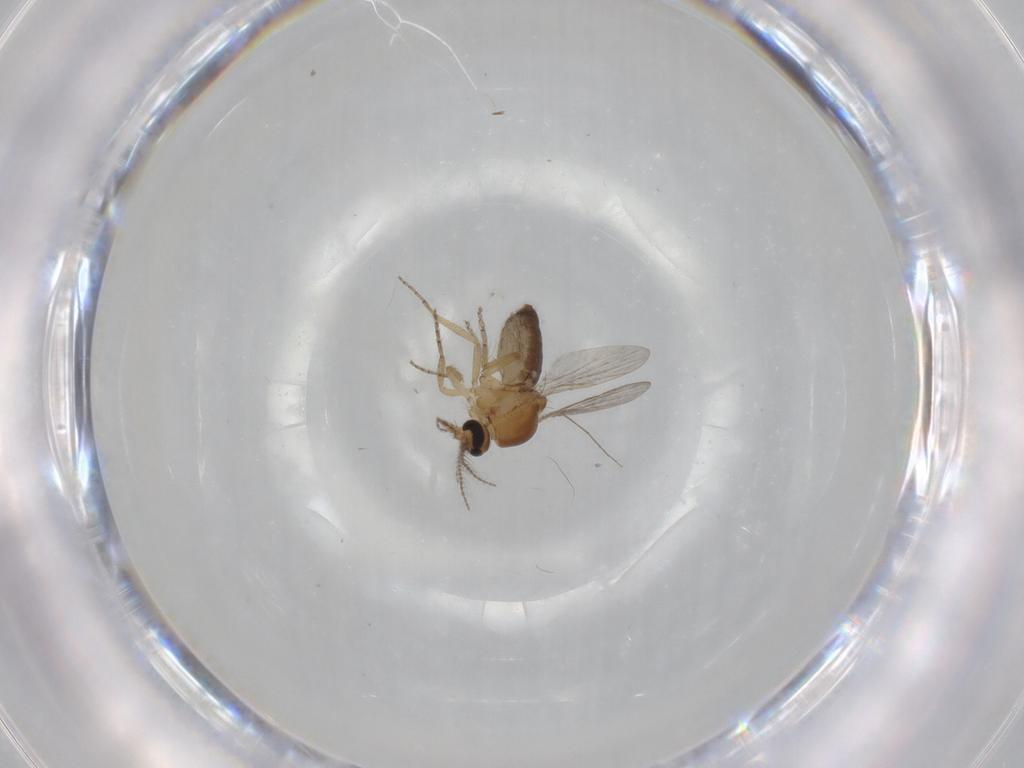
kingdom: Animalia
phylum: Arthropoda
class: Insecta
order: Diptera
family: Ceratopogonidae
